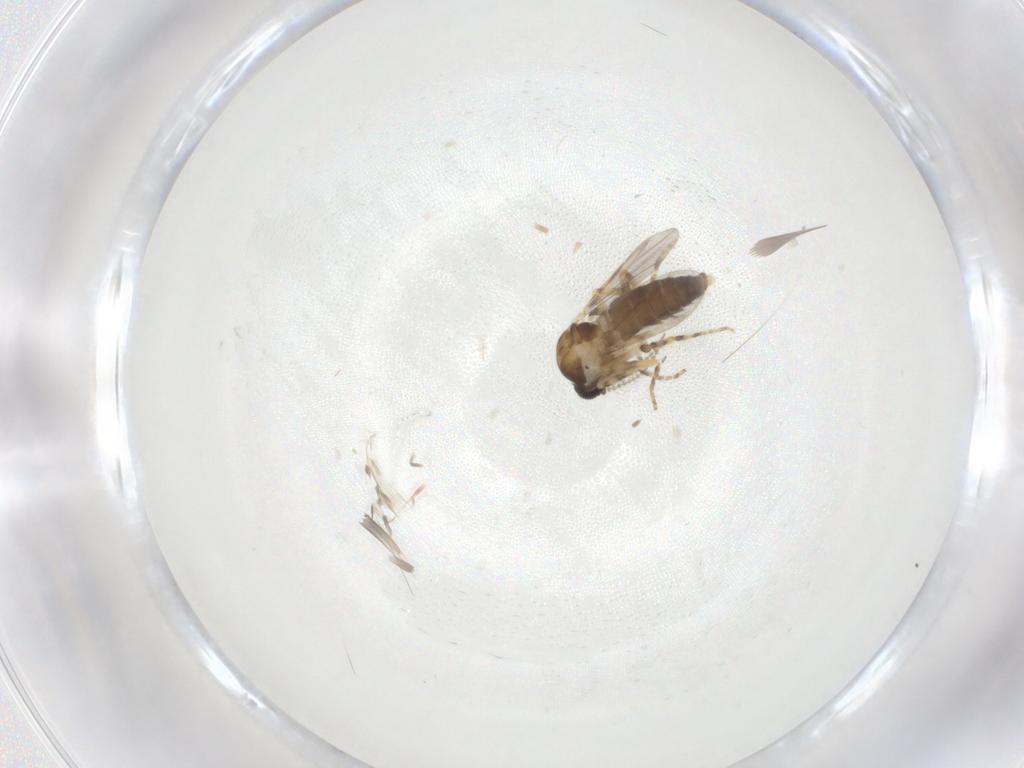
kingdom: Animalia
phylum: Arthropoda
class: Insecta
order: Diptera
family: Ceratopogonidae
